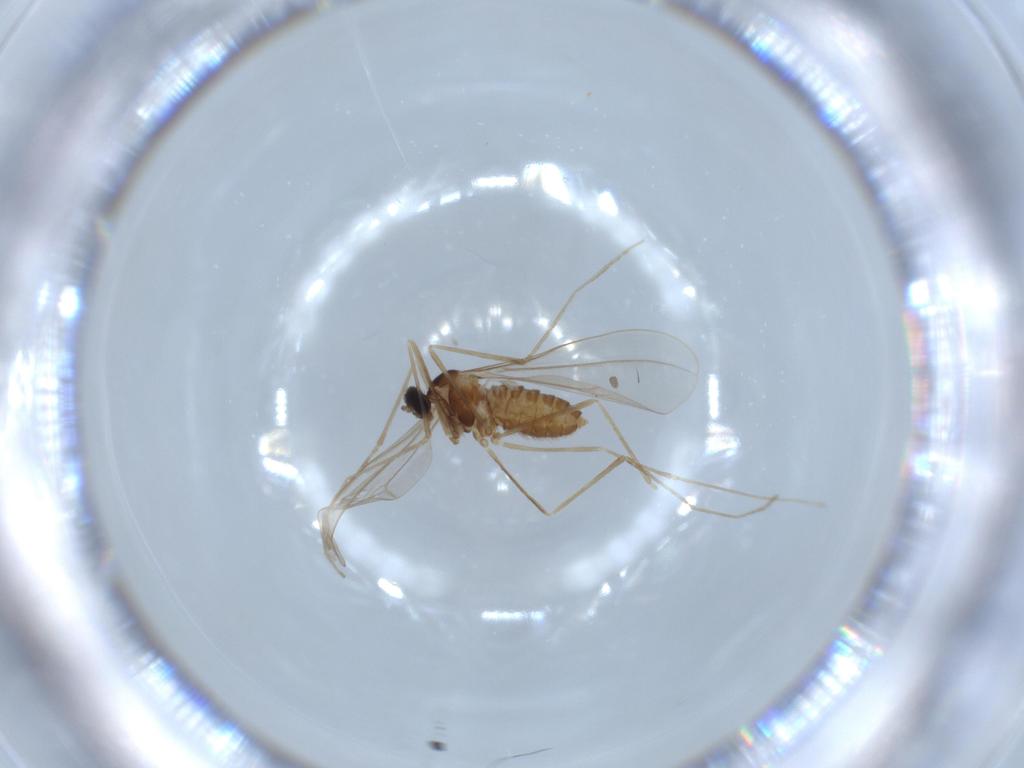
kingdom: Animalia
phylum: Arthropoda
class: Insecta
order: Diptera
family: Cecidomyiidae
